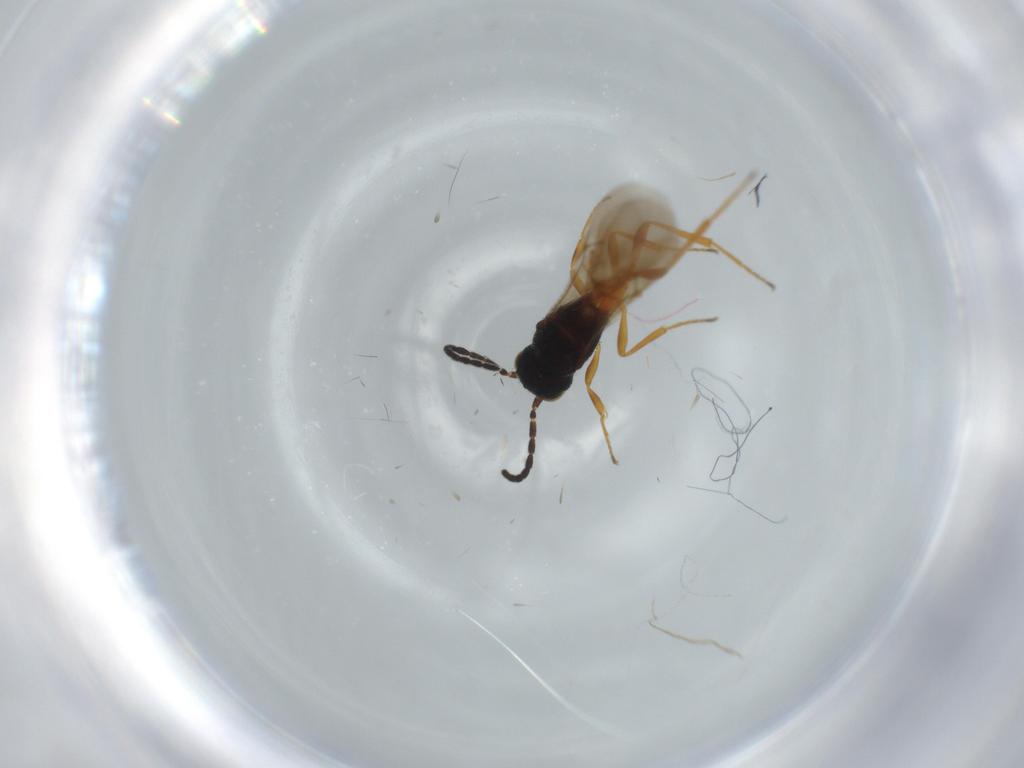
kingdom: Animalia
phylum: Arthropoda
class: Insecta
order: Hymenoptera
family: Scelionidae
